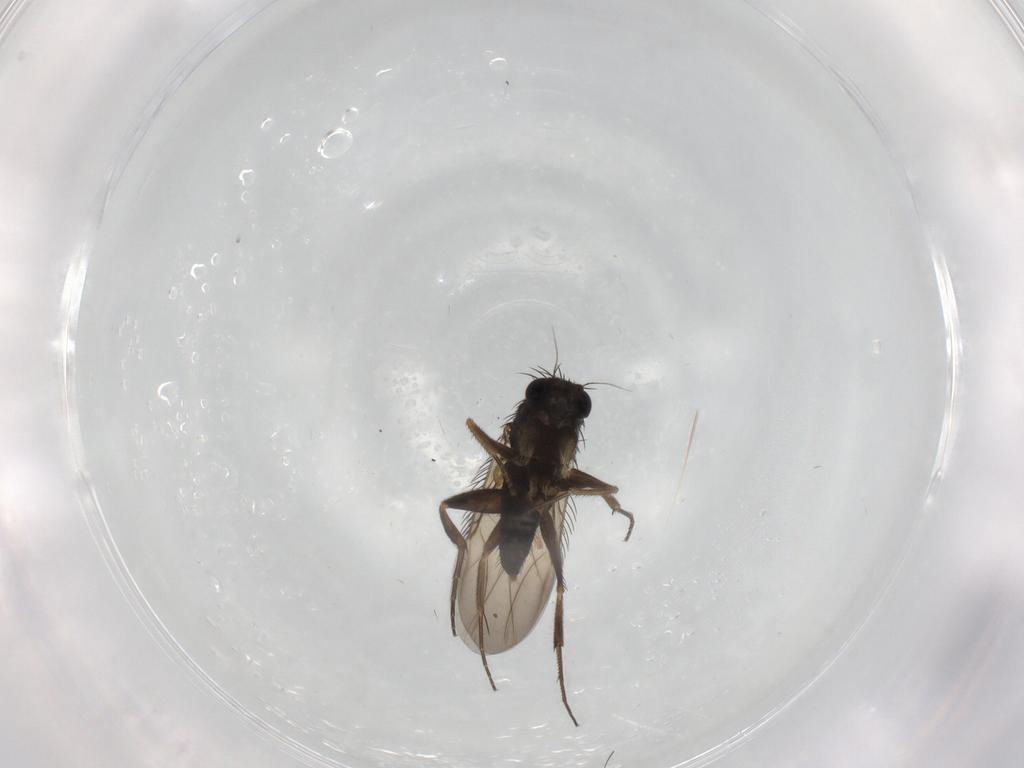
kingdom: Animalia
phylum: Arthropoda
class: Insecta
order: Diptera
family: Phoridae
